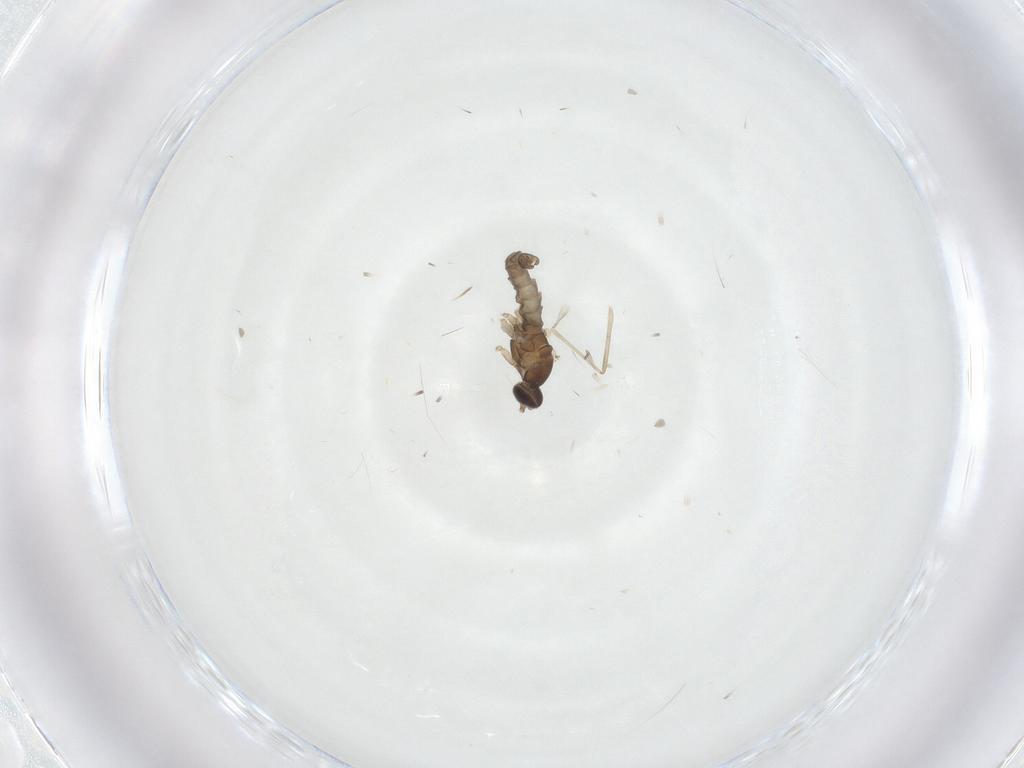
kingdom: Animalia
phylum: Arthropoda
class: Insecta
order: Diptera
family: Cecidomyiidae
